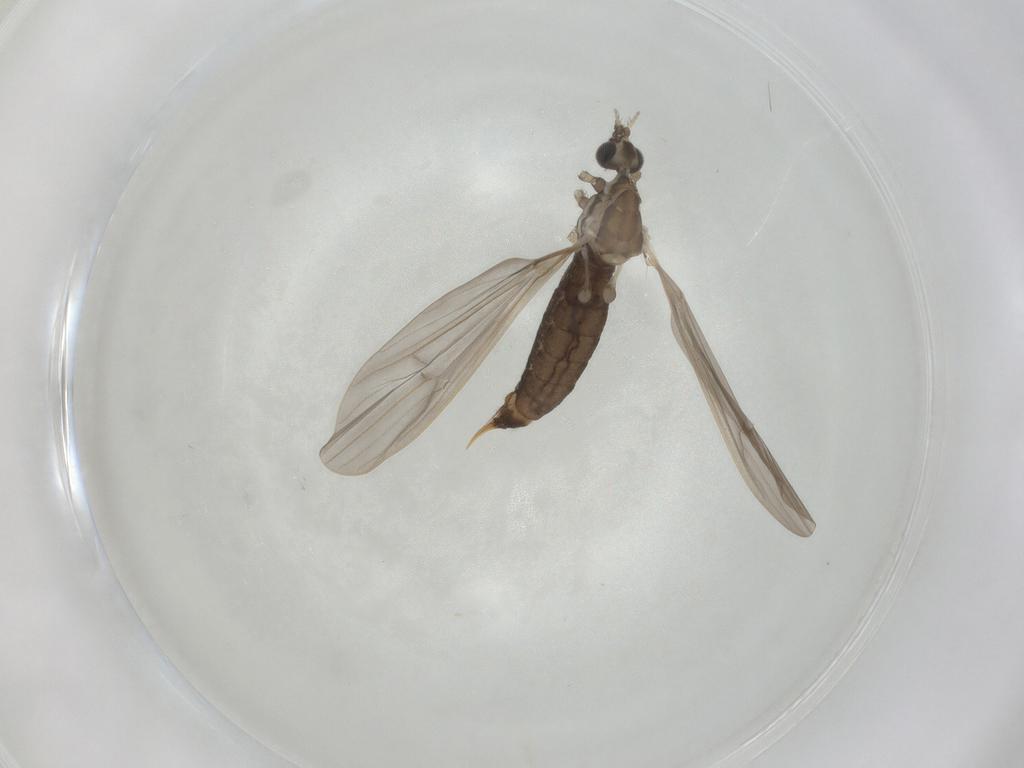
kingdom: Animalia
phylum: Arthropoda
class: Insecta
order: Diptera
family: Limoniidae
